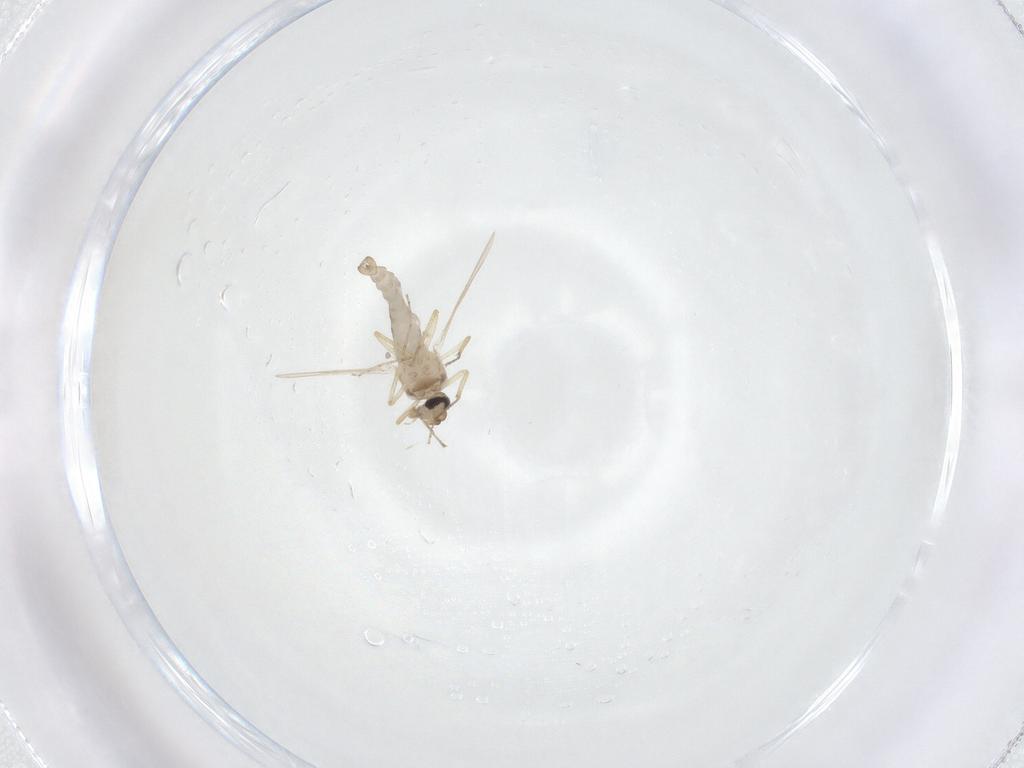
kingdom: Animalia
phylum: Arthropoda
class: Insecta
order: Diptera
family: Ceratopogonidae
